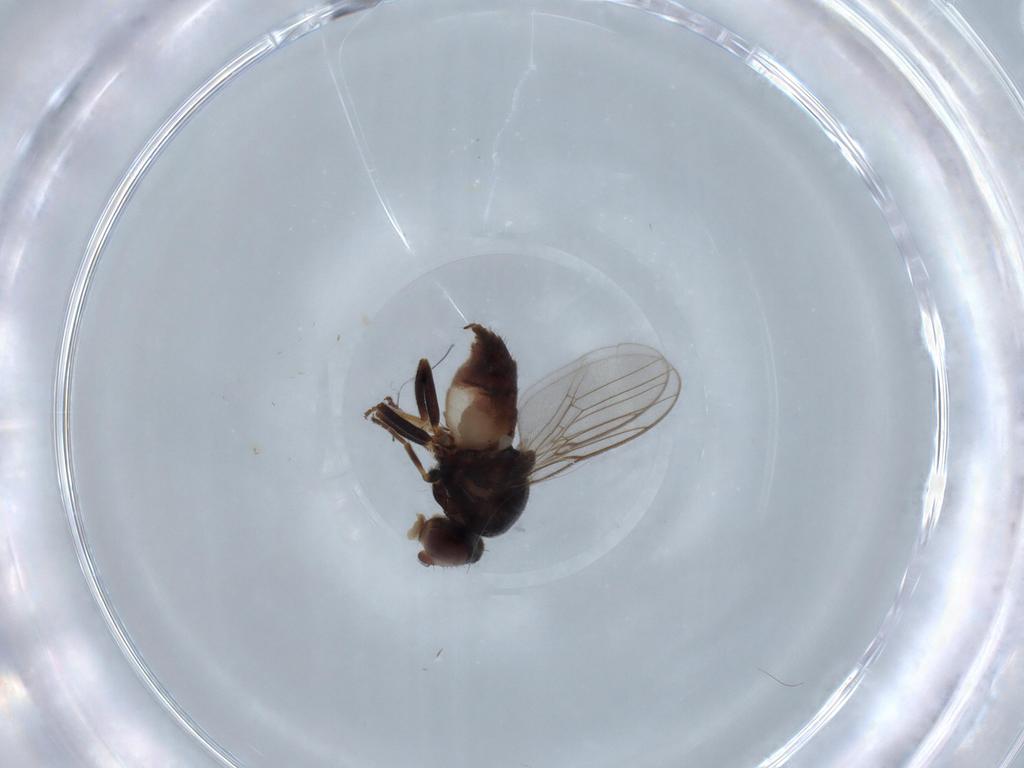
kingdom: Animalia
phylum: Arthropoda
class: Insecta
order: Diptera
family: Chloropidae
